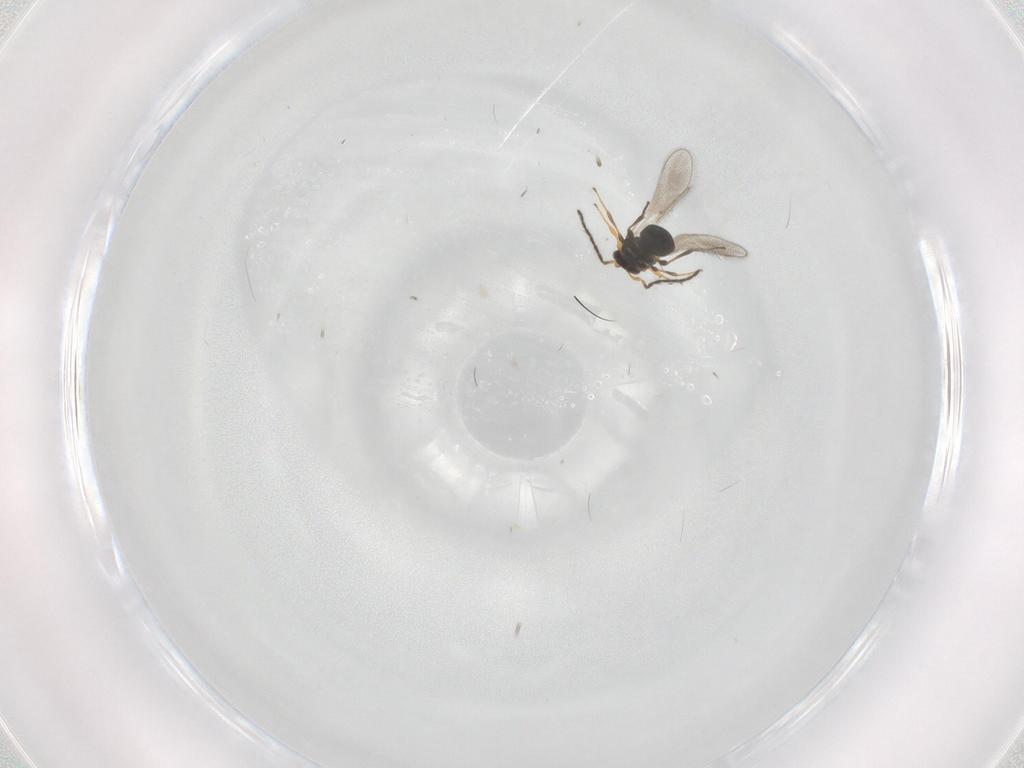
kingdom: Animalia
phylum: Arthropoda
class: Insecta
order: Hymenoptera
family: Platygastridae
